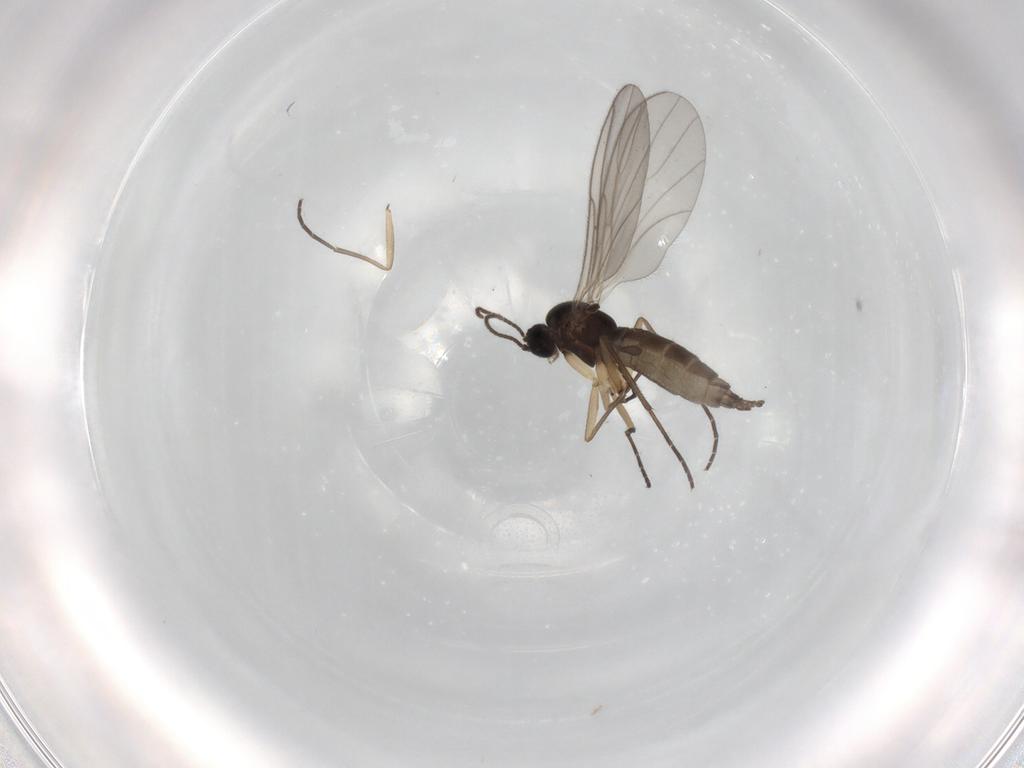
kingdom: Animalia
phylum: Arthropoda
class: Insecta
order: Diptera
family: Sciaridae
